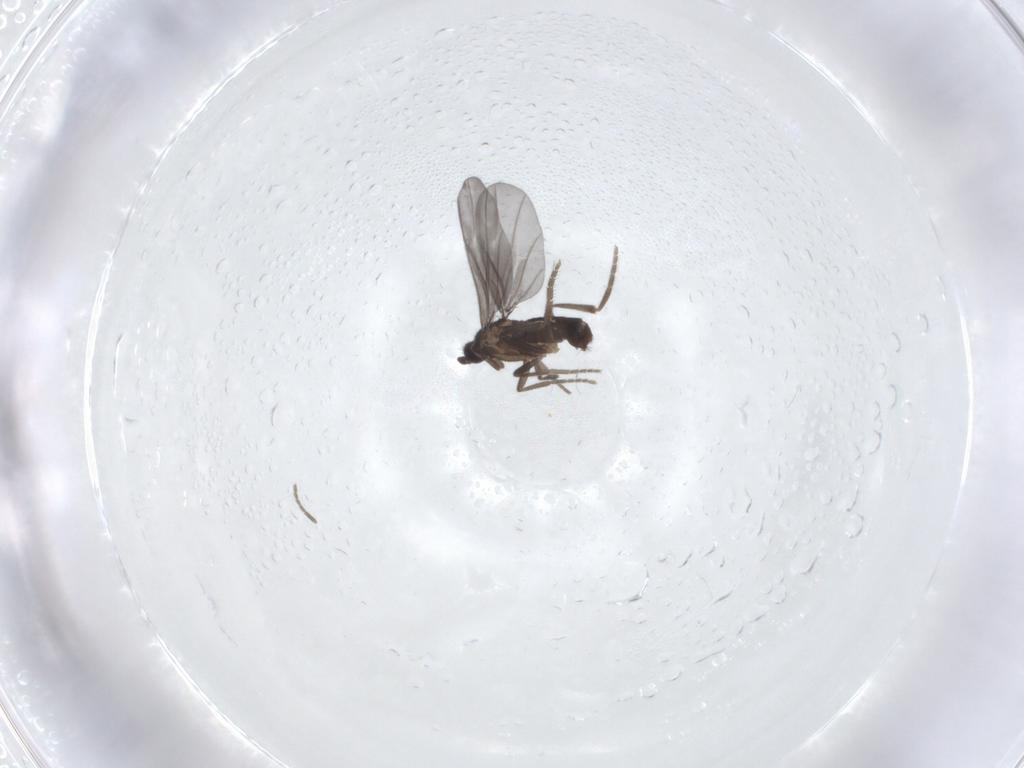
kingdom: Animalia
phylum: Arthropoda
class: Insecta
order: Diptera
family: Phoridae
